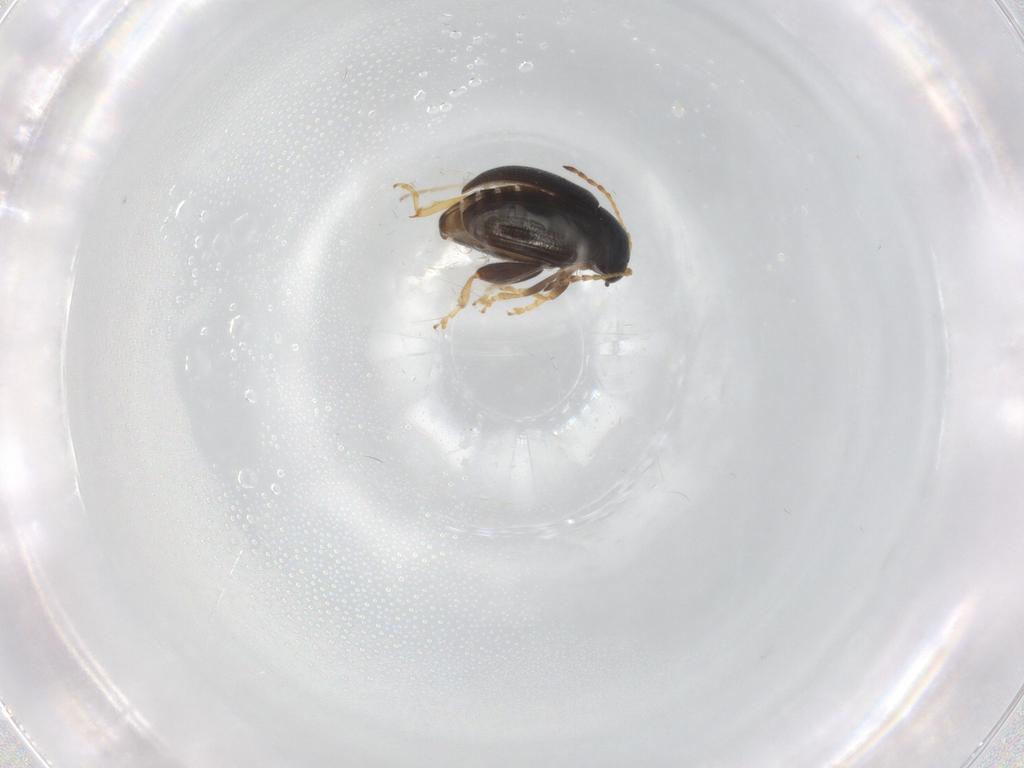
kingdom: Animalia
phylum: Arthropoda
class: Insecta
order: Coleoptera
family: Chrysomelidae
